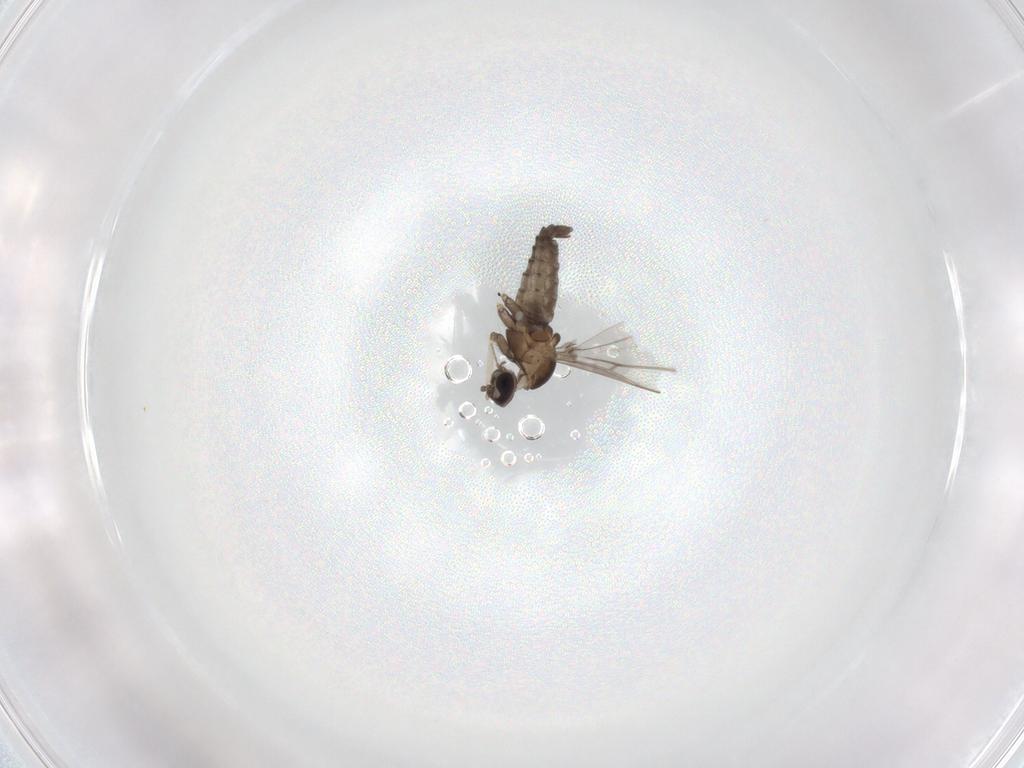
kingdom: Animalia
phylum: Arthropoda
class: Insecta
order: Diptera
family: Cecidomyiidae
